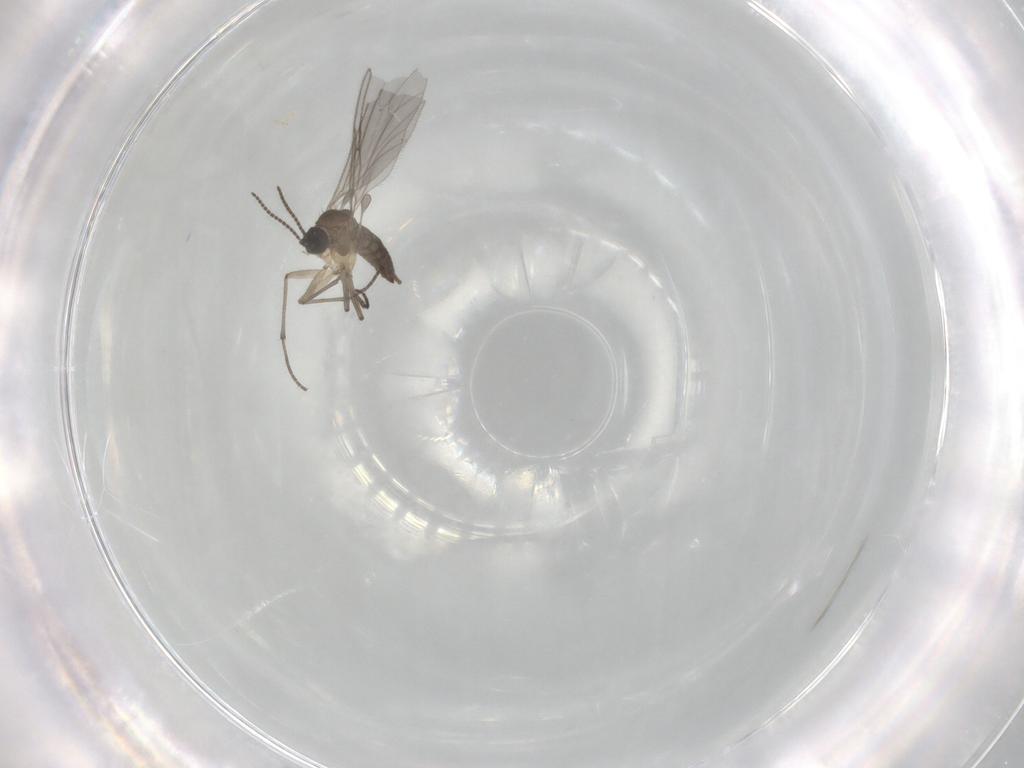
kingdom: Animalia
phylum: Arthropoda
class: Insecta
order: Diptera
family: Sciaridae
